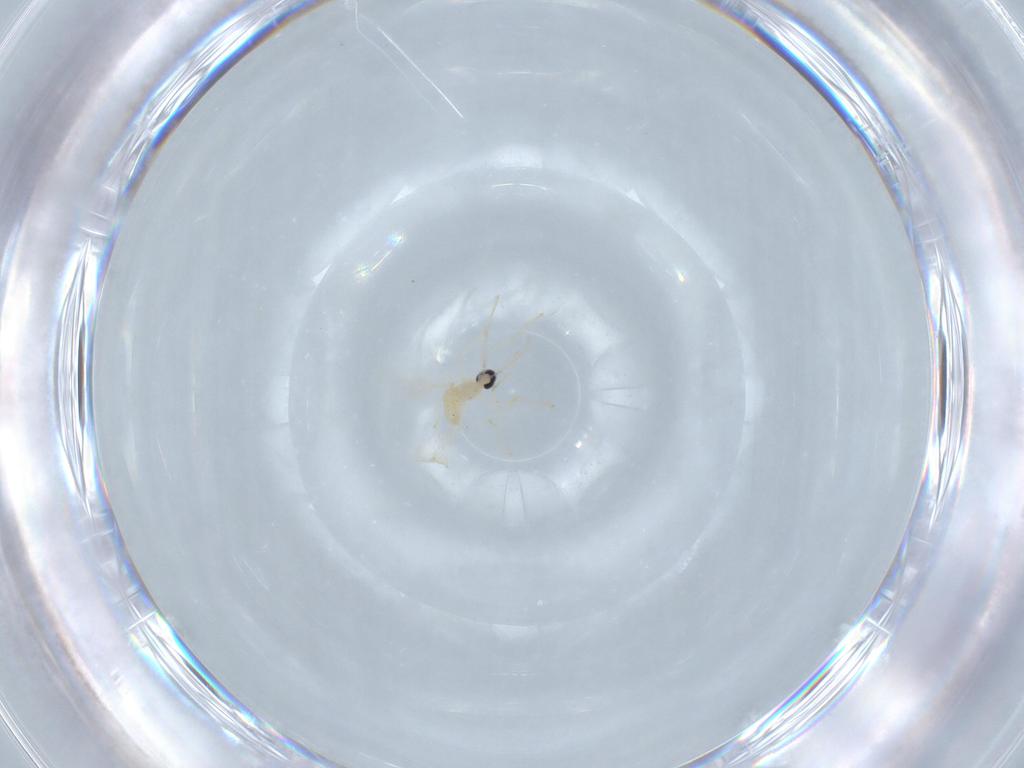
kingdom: Animalia
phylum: Arthropoda
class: Insecta
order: Diptera
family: Cecidomyiidae
